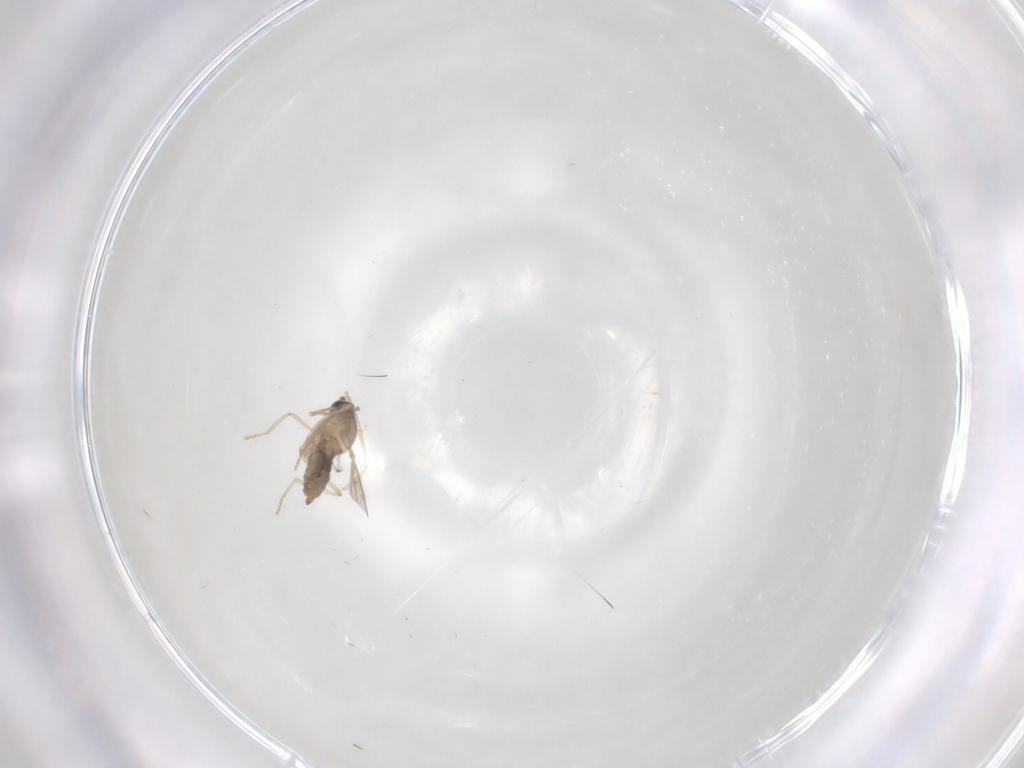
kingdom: Animalia
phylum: Arthropoda
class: Insecta
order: Diptera
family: Cecidomyiidae
